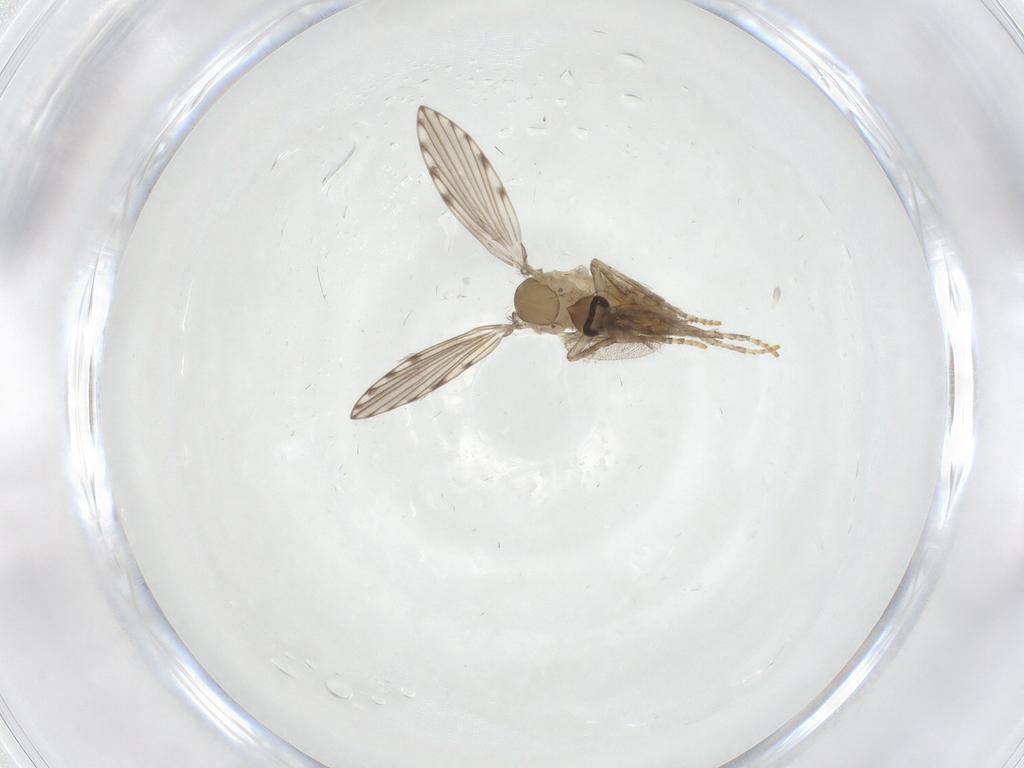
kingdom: Animalia
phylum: Arthropoda
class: Insecta
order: Diptera
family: Psychodidae
